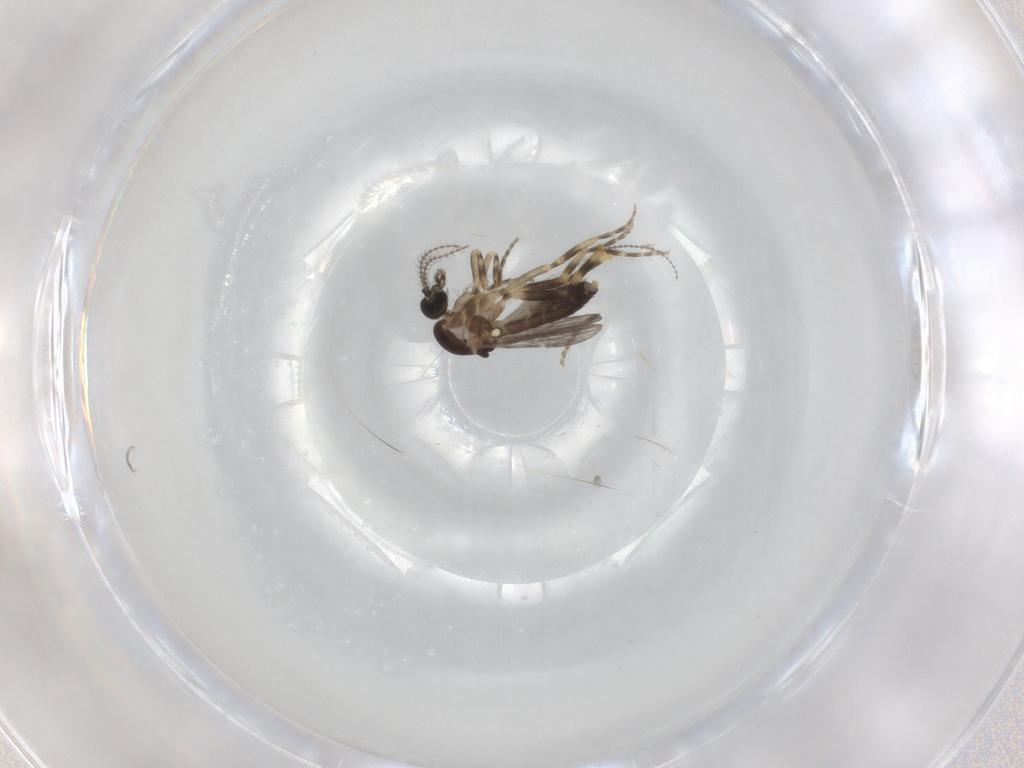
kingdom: Animalia
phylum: Arthropoda
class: Insecta
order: Diptera
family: Ceratopogonidae
